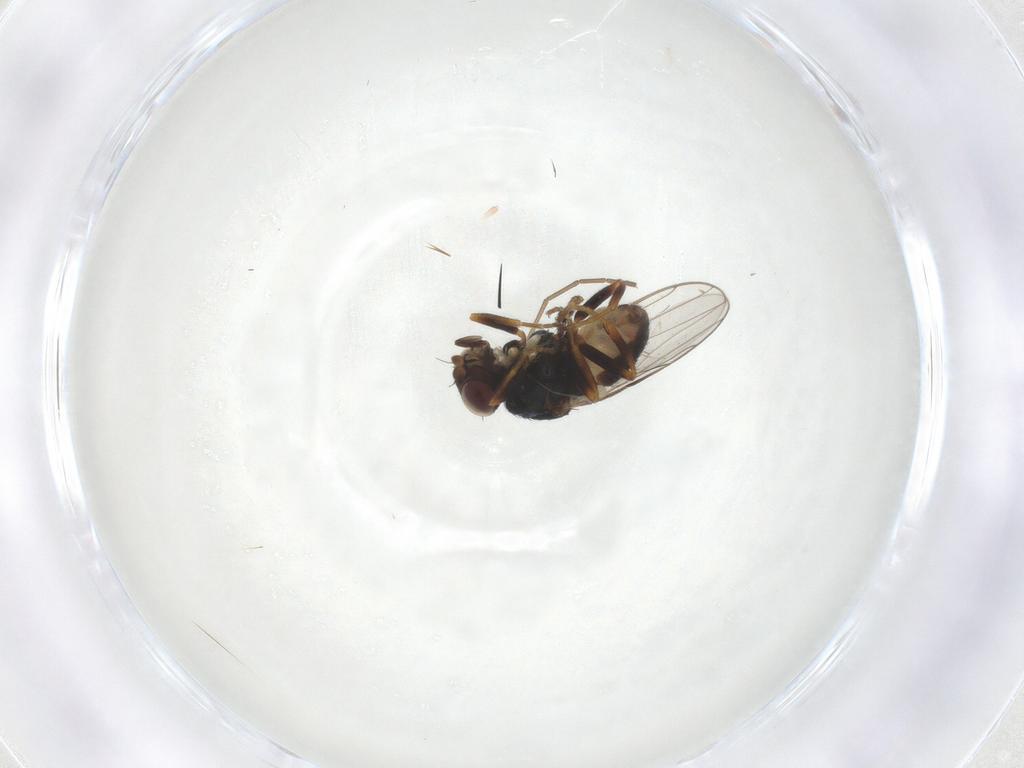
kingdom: Animalia
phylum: Arthropoda
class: Insecta
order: Diptera
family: Chloropidae
